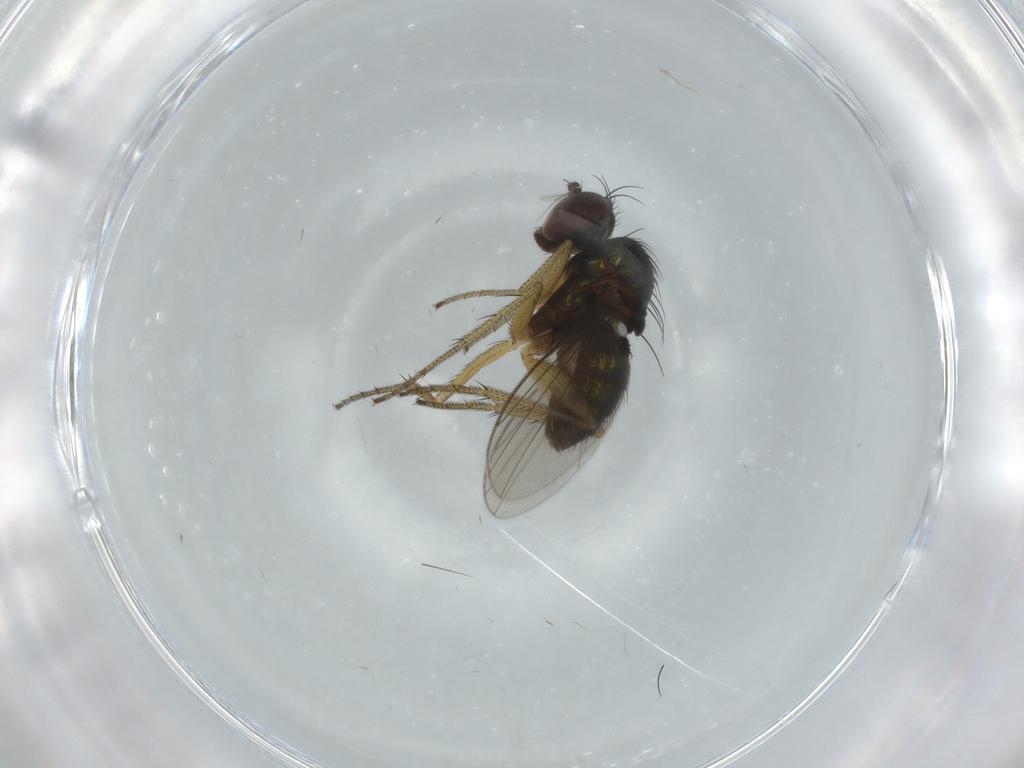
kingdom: Animalia
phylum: Arthropoda
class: Insecta
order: Diptera
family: Dolichopodidae
